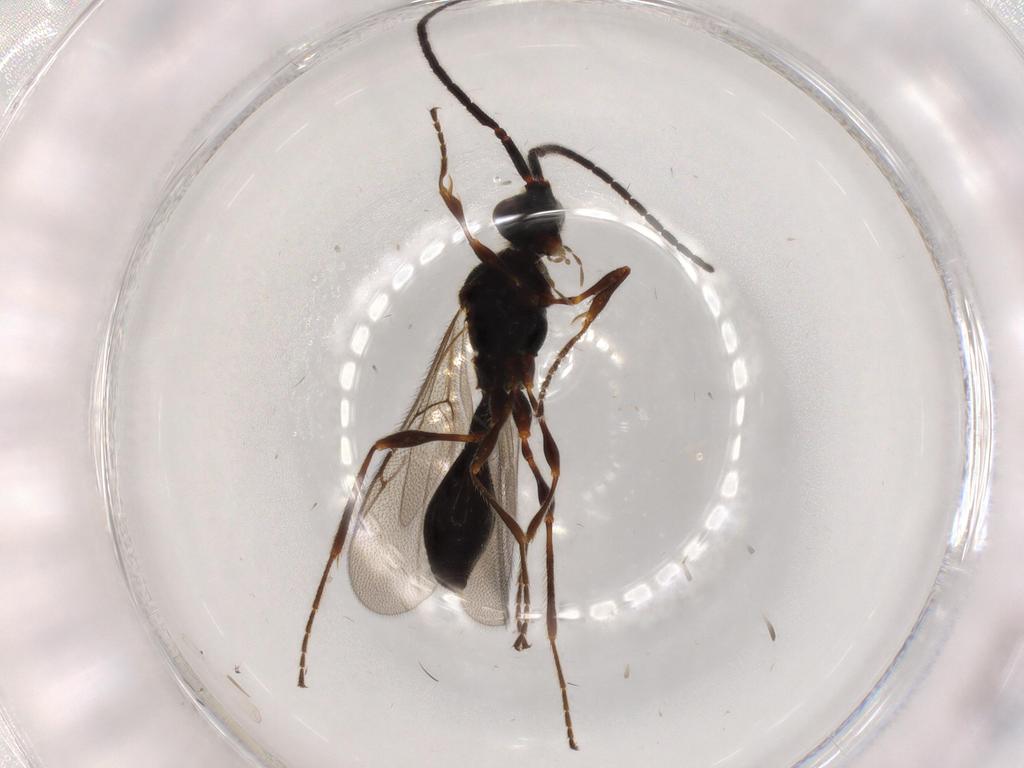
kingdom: Animalia
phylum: Arthropoda
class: Insecta
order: Hymenoptera
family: Diapriidae
